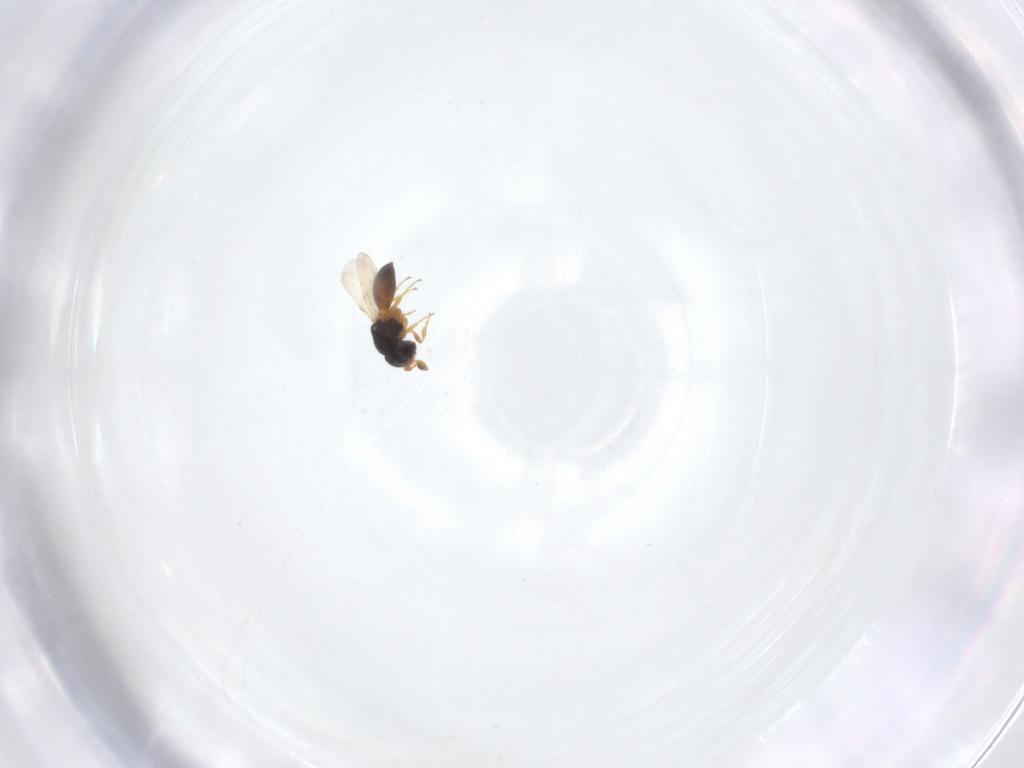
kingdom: Animalia
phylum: Arthropoda
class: Insecta
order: Hymenoptera
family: Scelionidae
